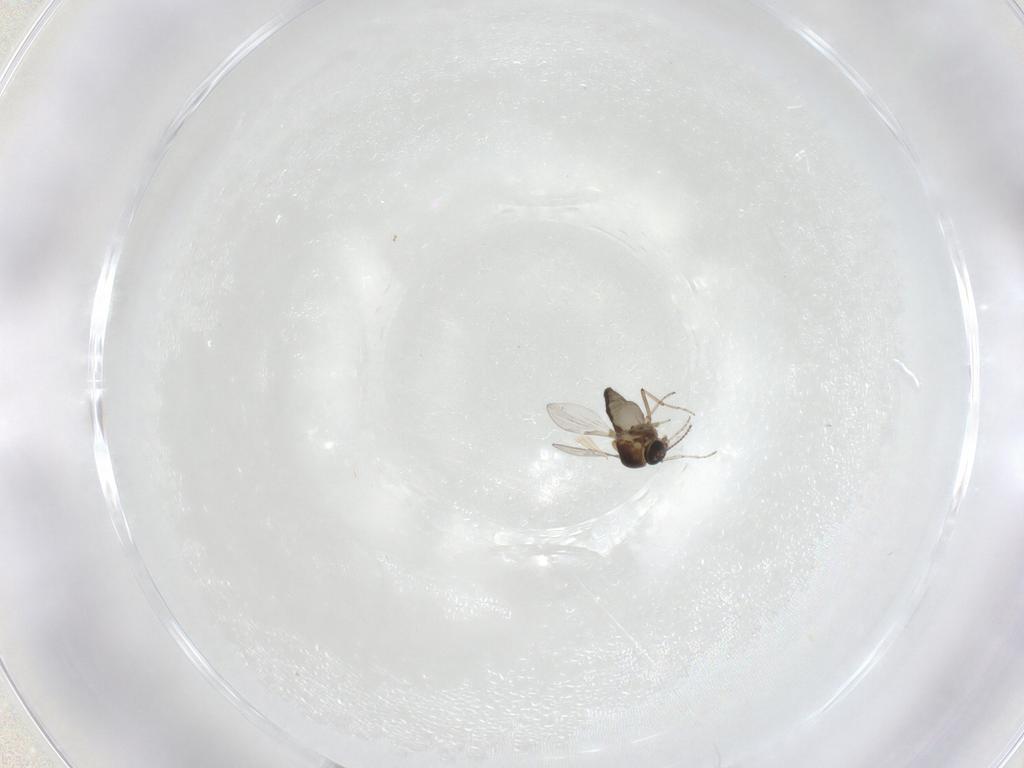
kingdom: Animalia
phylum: Arthropoda
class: Insecta
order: Diptera
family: Ceratopogonidae
